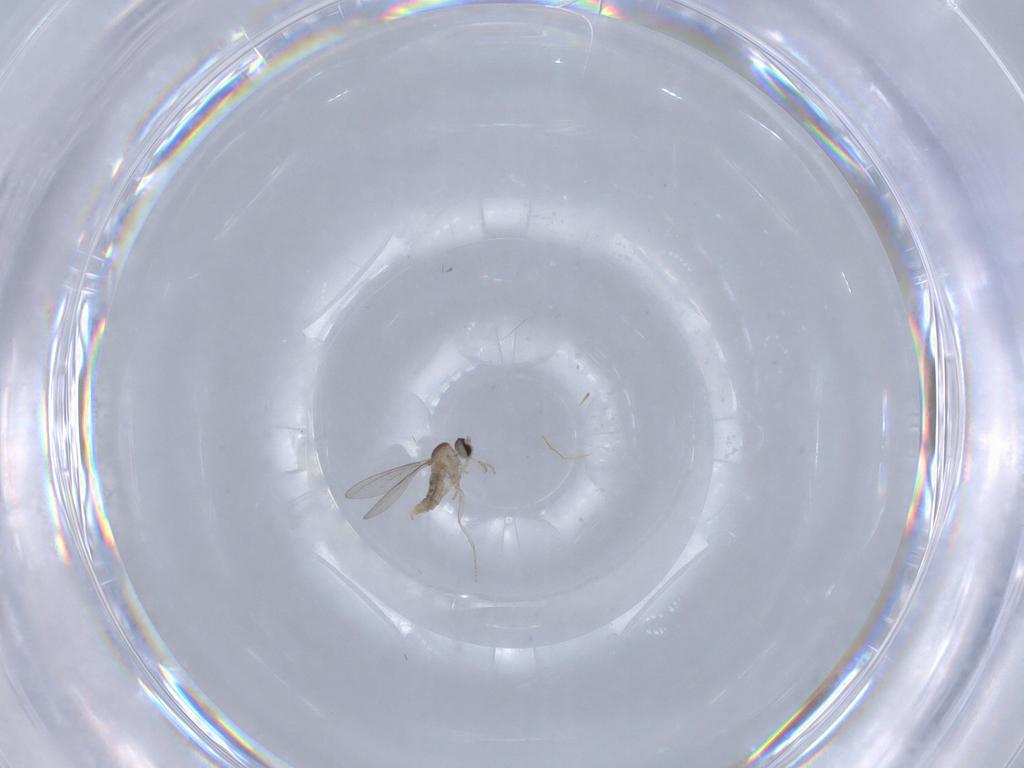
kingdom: Animalia
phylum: Arthropoda
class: Insecta
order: Diptera
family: Cecidomyiidae
